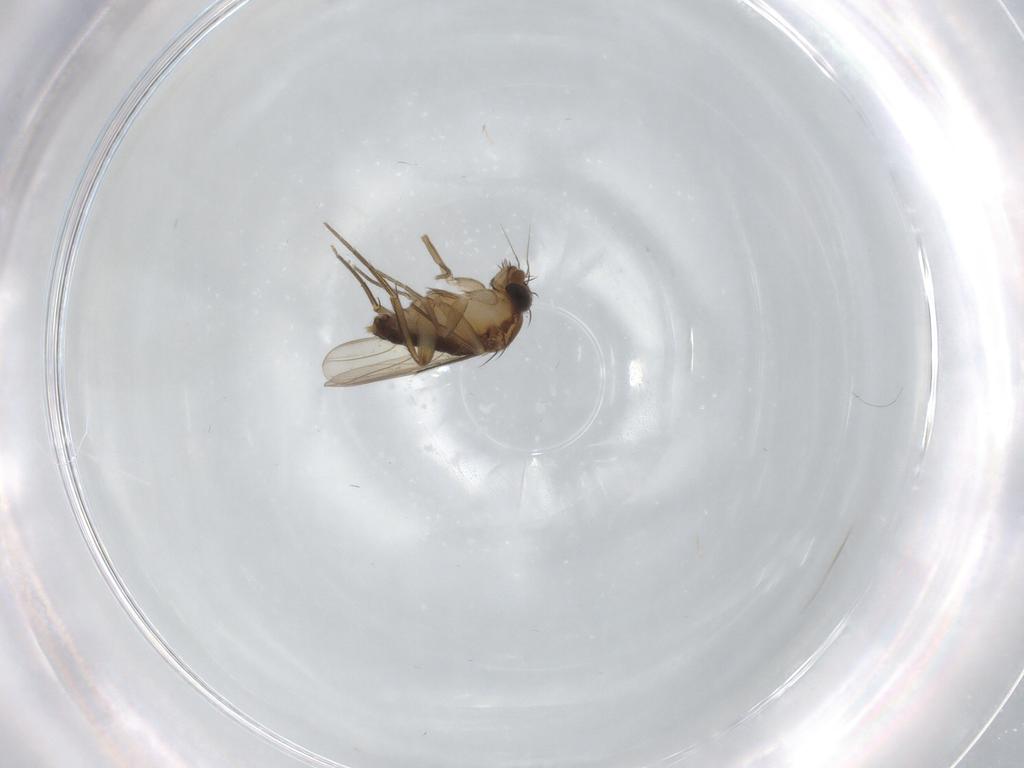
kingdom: Animalia
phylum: Arthropoda
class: Insecta
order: Diptera
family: Phoridae
